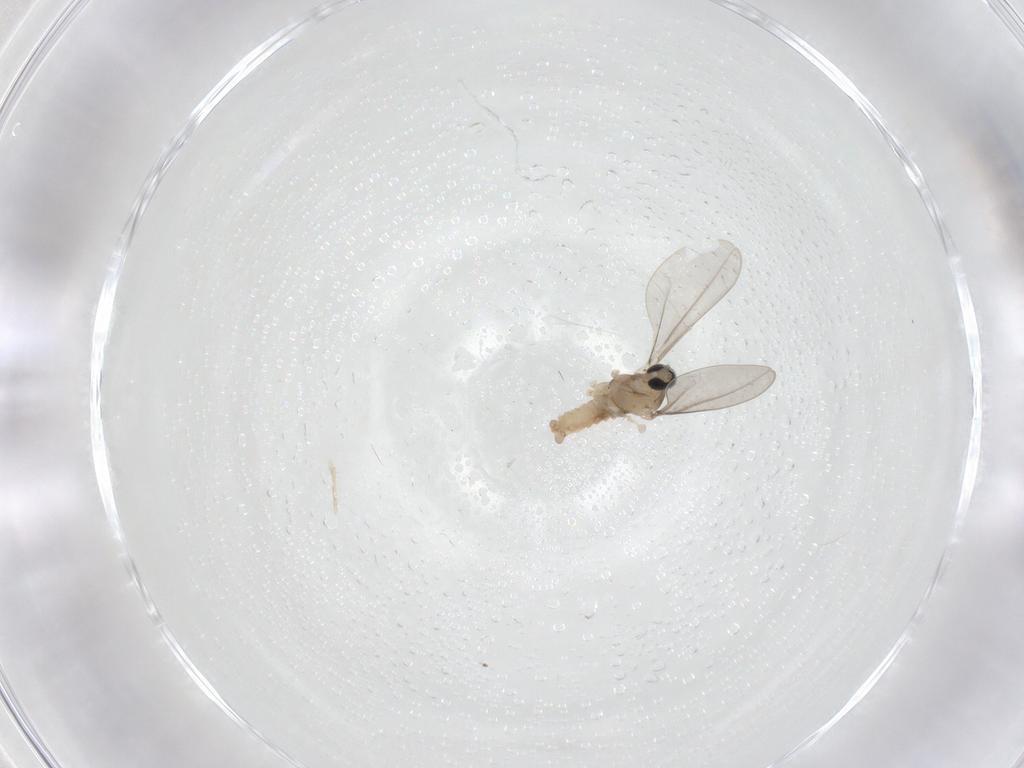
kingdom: Animalia
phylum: Arthropoda
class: Insecta
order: Diptera
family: Cecidomyiidae
